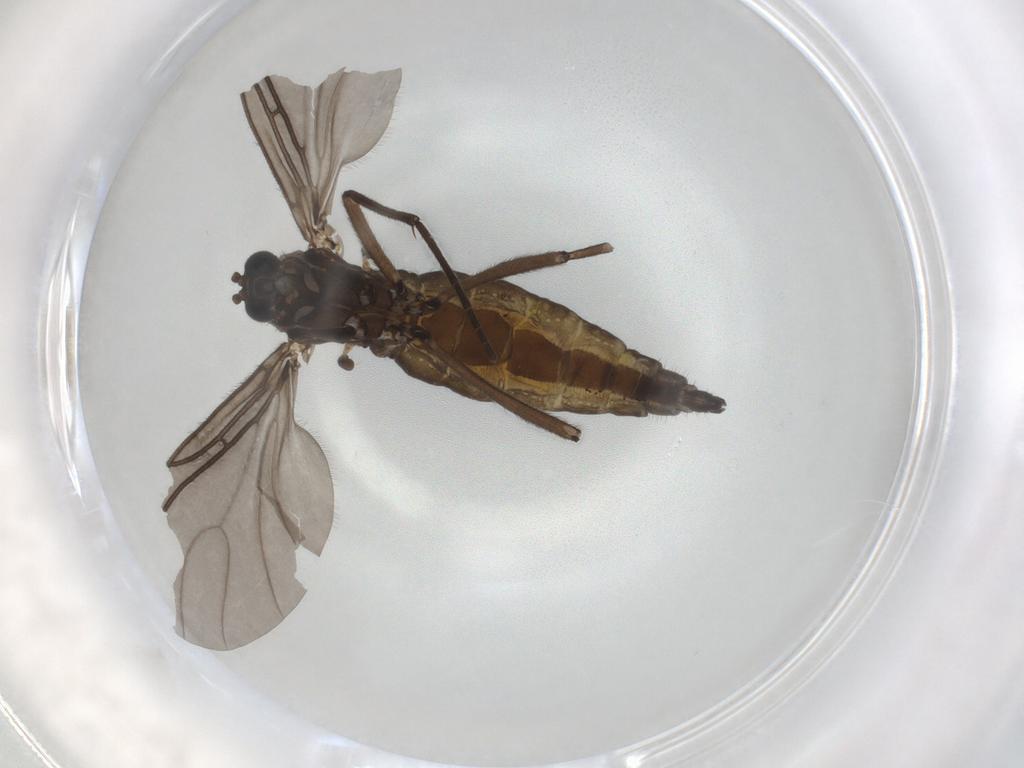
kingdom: Animalia
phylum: Arthropoda
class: Insecta
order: Diptera
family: Sciaridae
